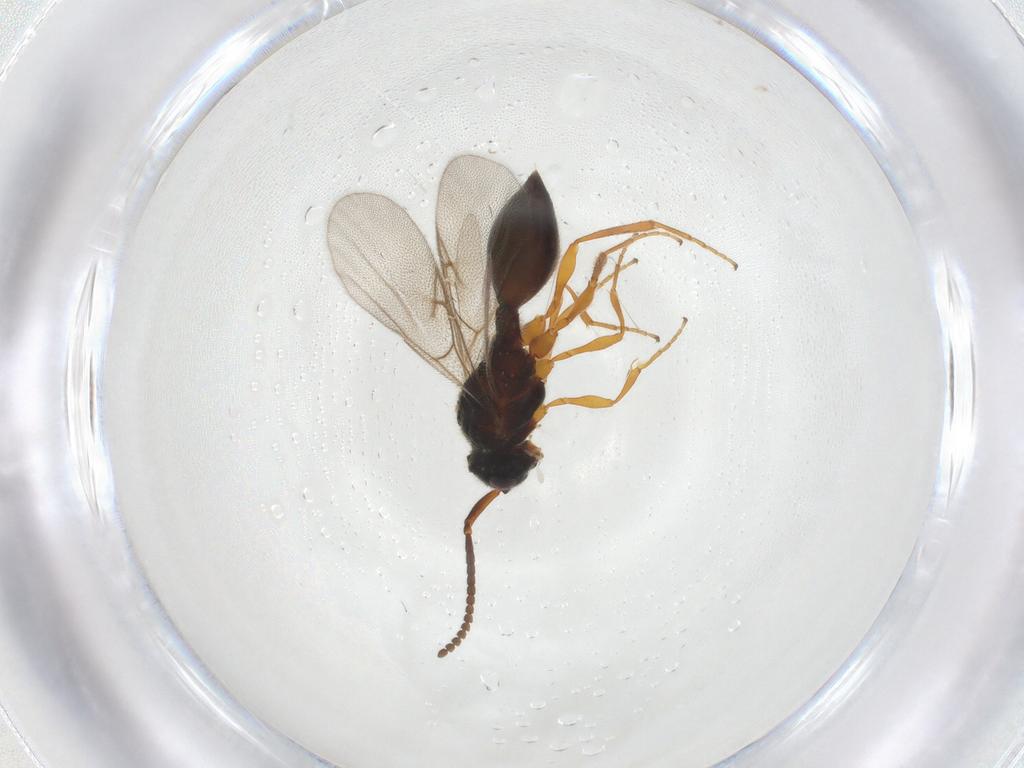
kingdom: Animalia
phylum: Arthropoda
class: Insecta
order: Hymenoptera
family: Diapriidae
